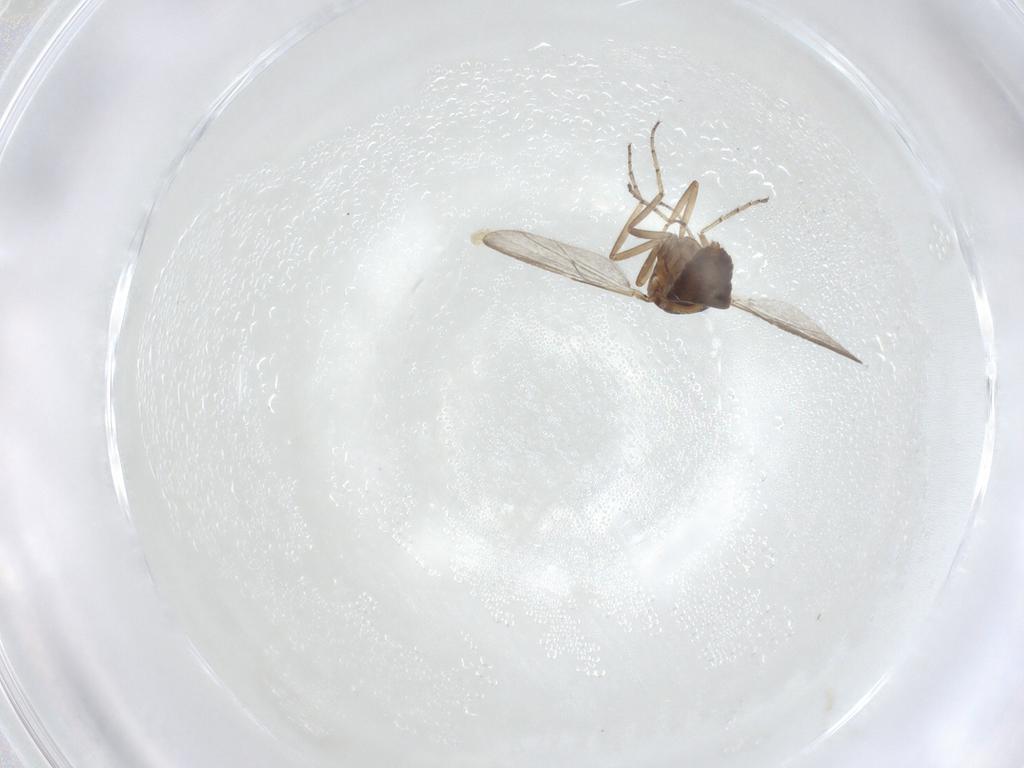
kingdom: Animalia
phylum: Arthropoda
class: Insecta
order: Diptera
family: Ceratopogonidae
